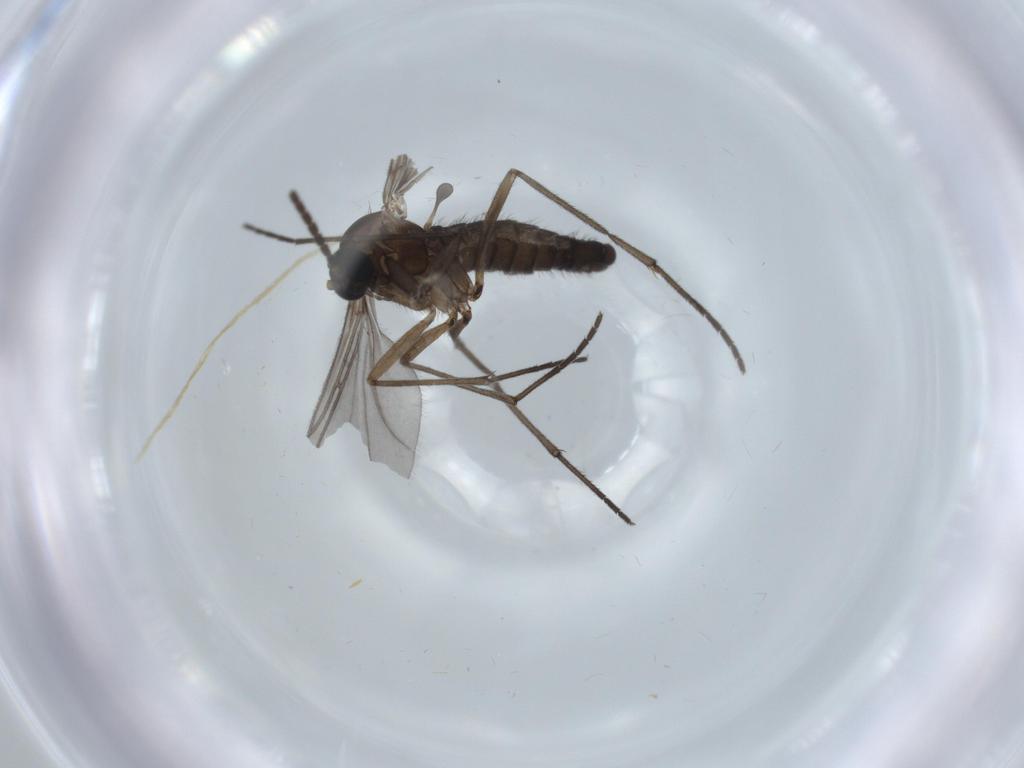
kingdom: Animalia
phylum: Arthropoda
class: Insecta
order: Diptera
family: Sciaridae
